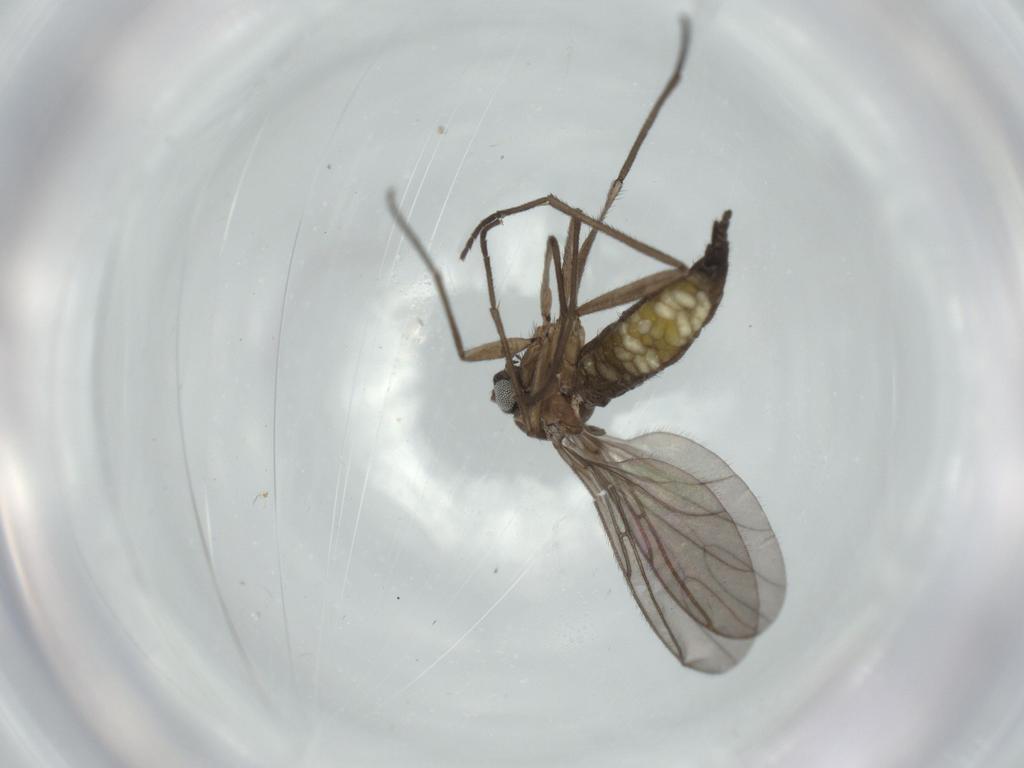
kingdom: Animalia
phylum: Arthropoda
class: Insecta
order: Diptera
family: Sciaridae
